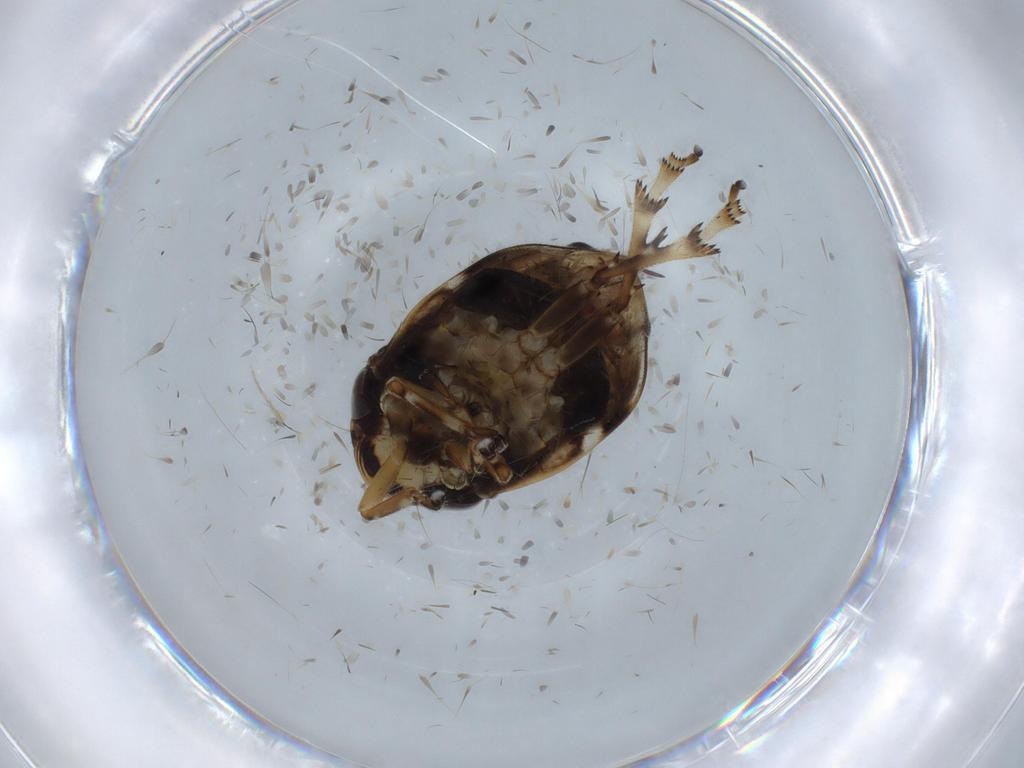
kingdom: Animalia
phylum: Arthropoda
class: Insecta
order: Hemiptera
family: Clastopteridae
